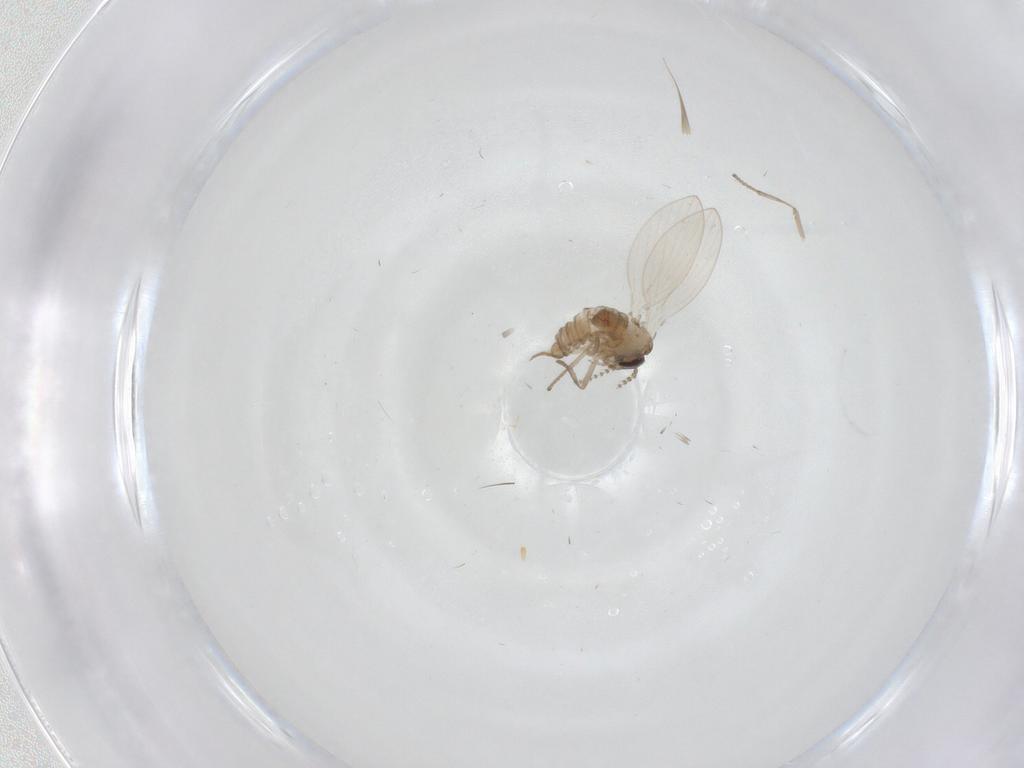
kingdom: Animalia
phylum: Arthropoda
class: Insecta
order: Diptera
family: Psychodidae
